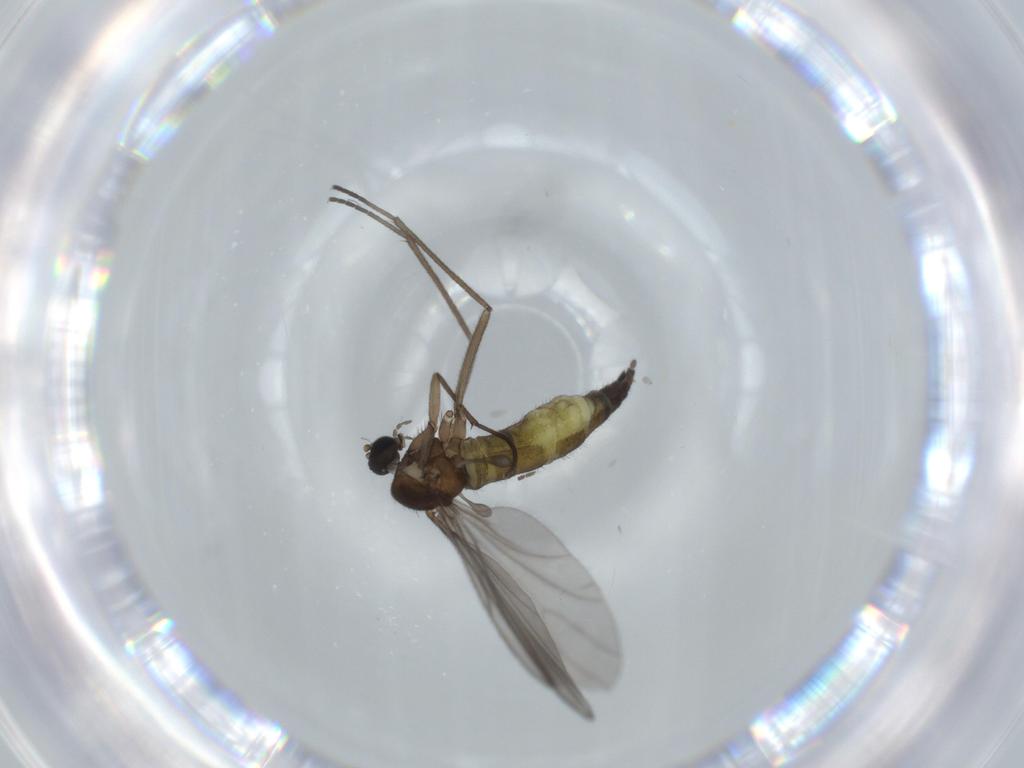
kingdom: Animalia
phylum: Arthropoda
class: Insecta
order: Diptera
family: Sciaridae
